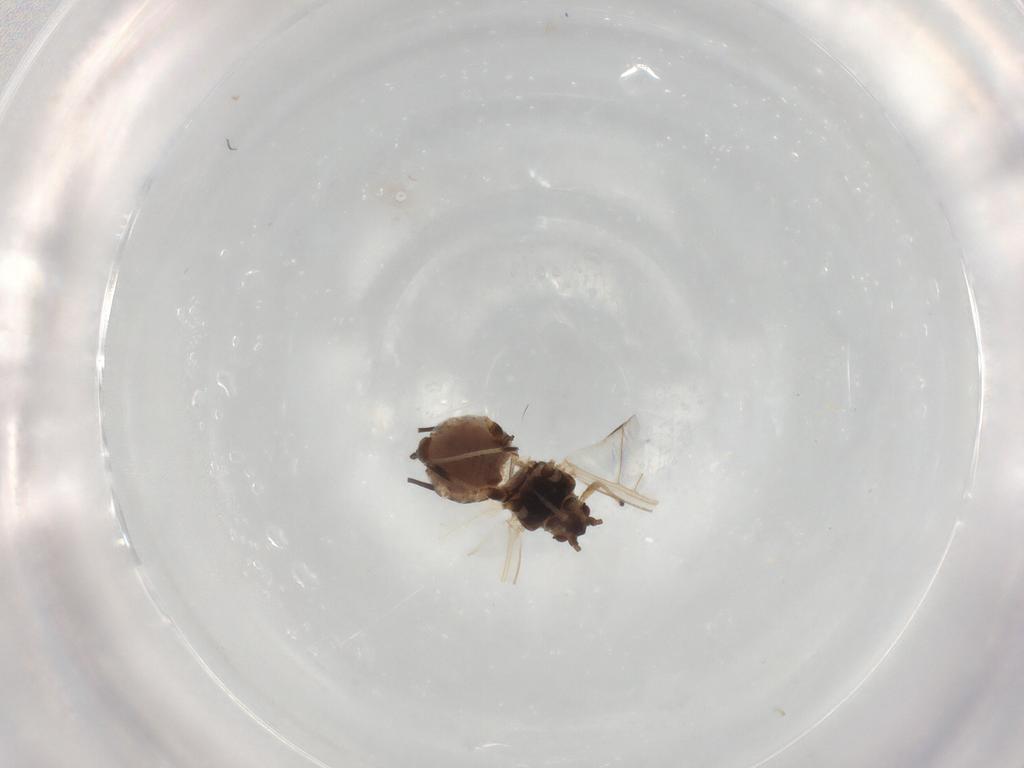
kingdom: Animalia
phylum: Arthropoda
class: Insecta
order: Hemiptera
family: Aphididae
